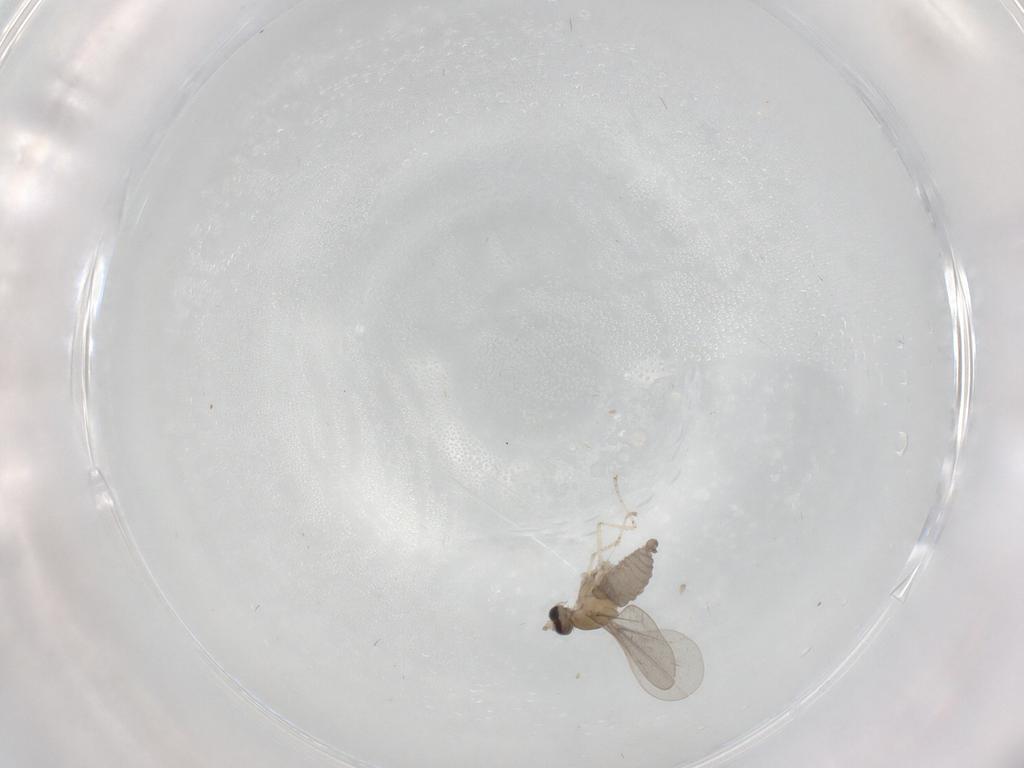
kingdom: Animalia
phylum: Arthropoda
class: Insecta
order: Diptera
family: Cecidomyiidae
